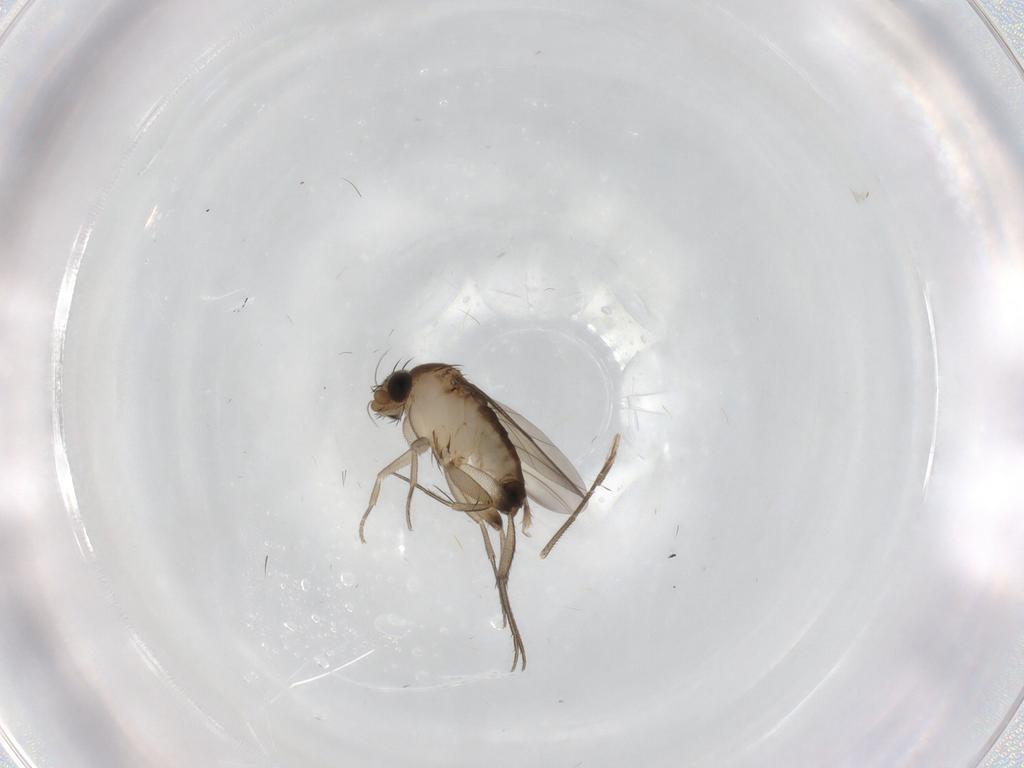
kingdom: Animalia
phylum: Arthropoda
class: Insecta
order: Diptera
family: Phoridae
